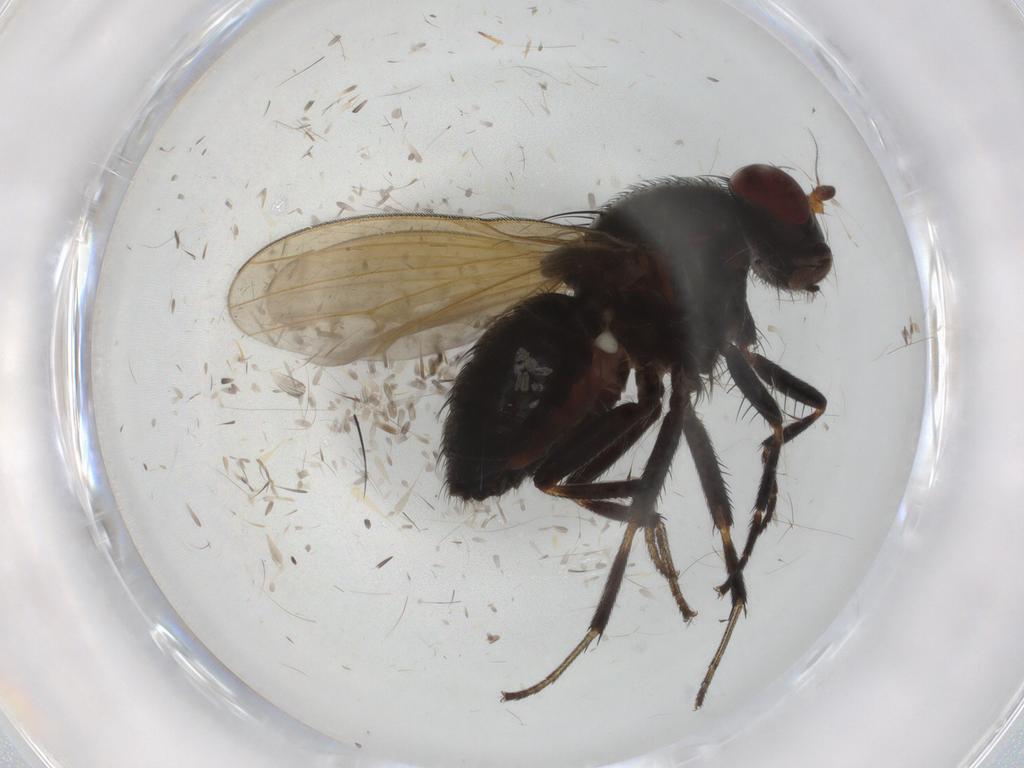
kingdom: Animalia
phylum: Arthropoda
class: Insecta
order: Diptera
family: Lauxaniidae
